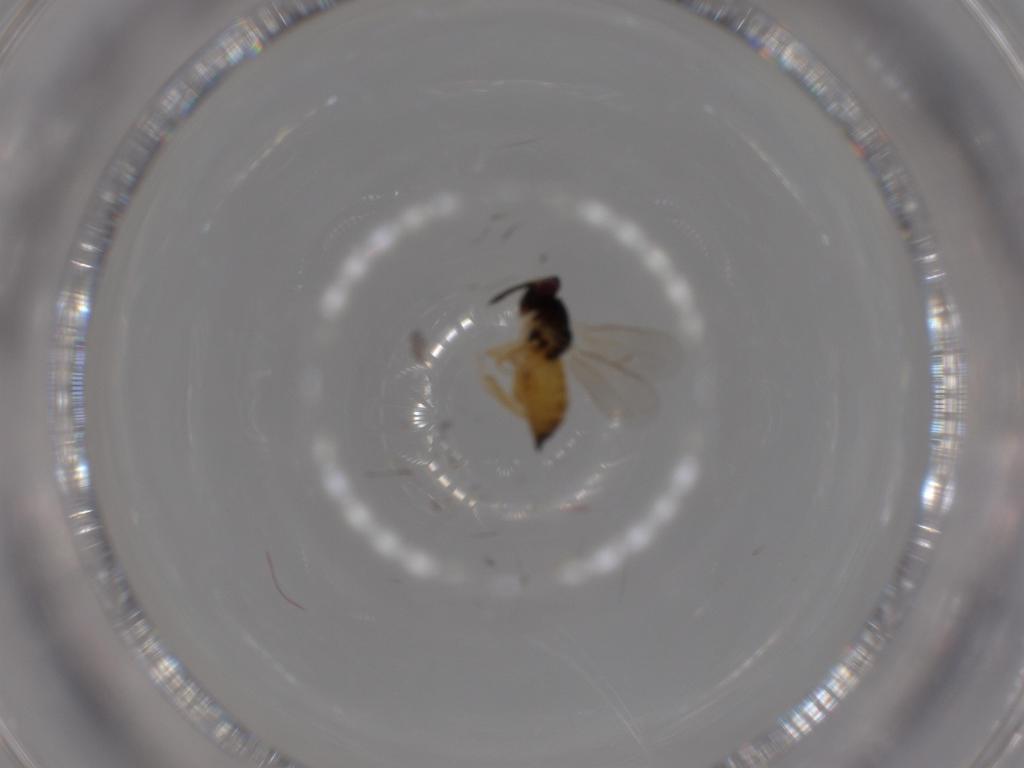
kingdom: Animalia
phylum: Arthropoda
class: Insecta
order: Hymenoptera
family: Eulophidae
